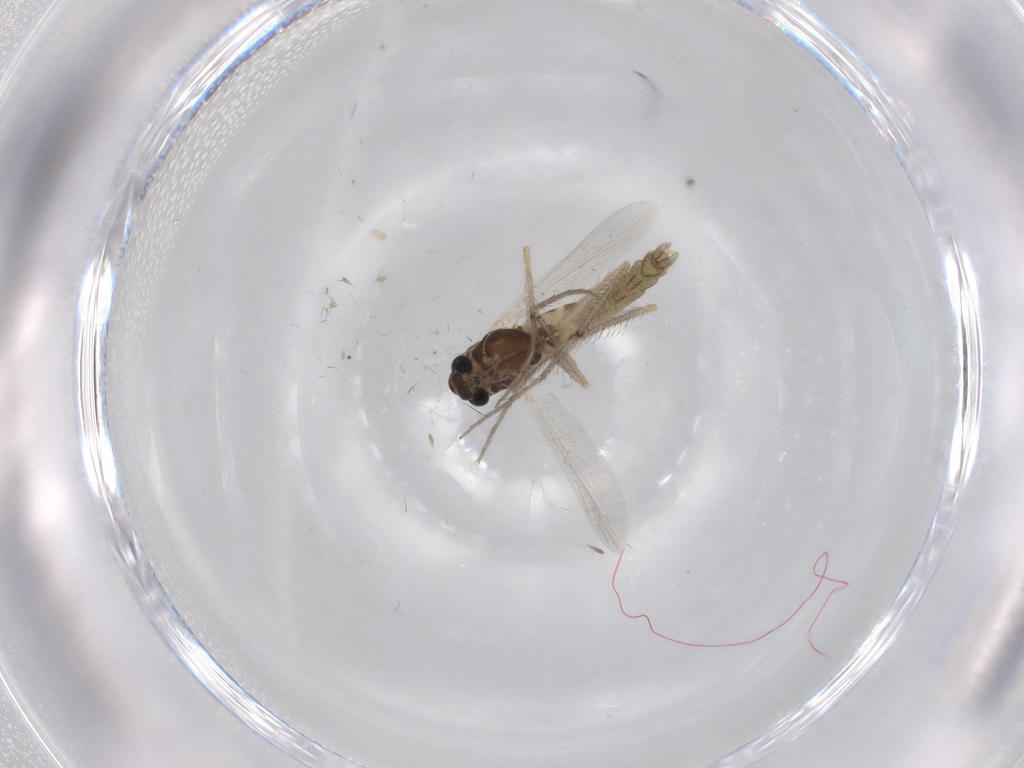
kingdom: Animalia
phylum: Arthropoda
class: Insecta
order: Diptera
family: Chironomidae
